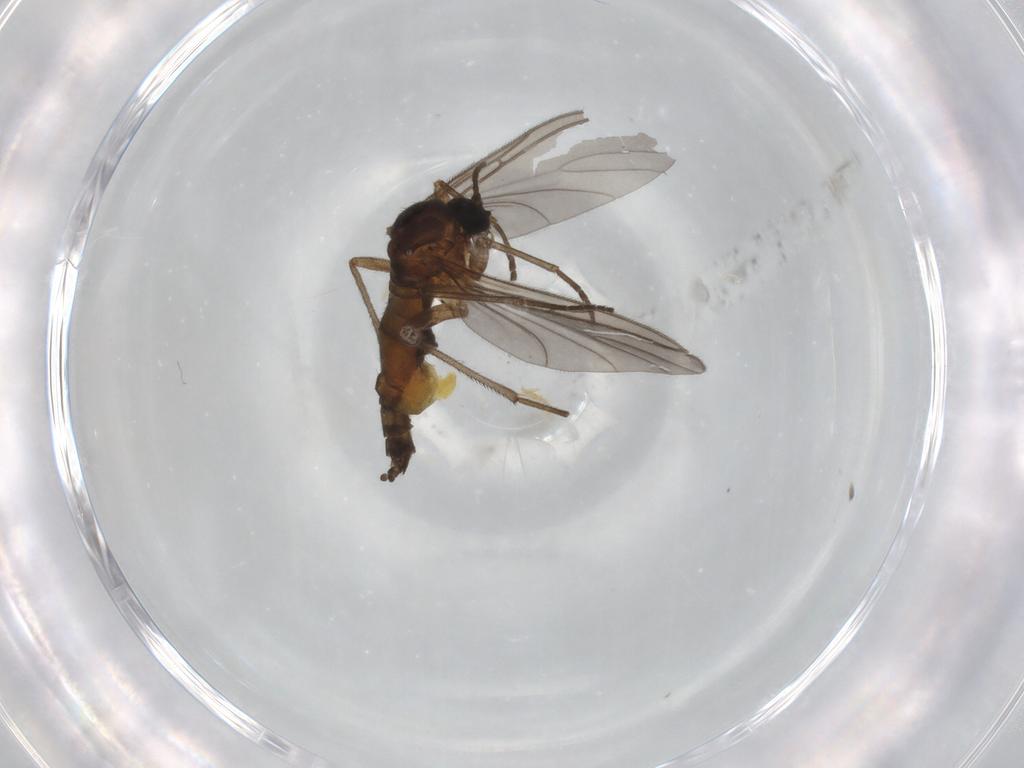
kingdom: Animalia
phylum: Arthropoda
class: Insecta
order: Diptera
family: Sciaridae
